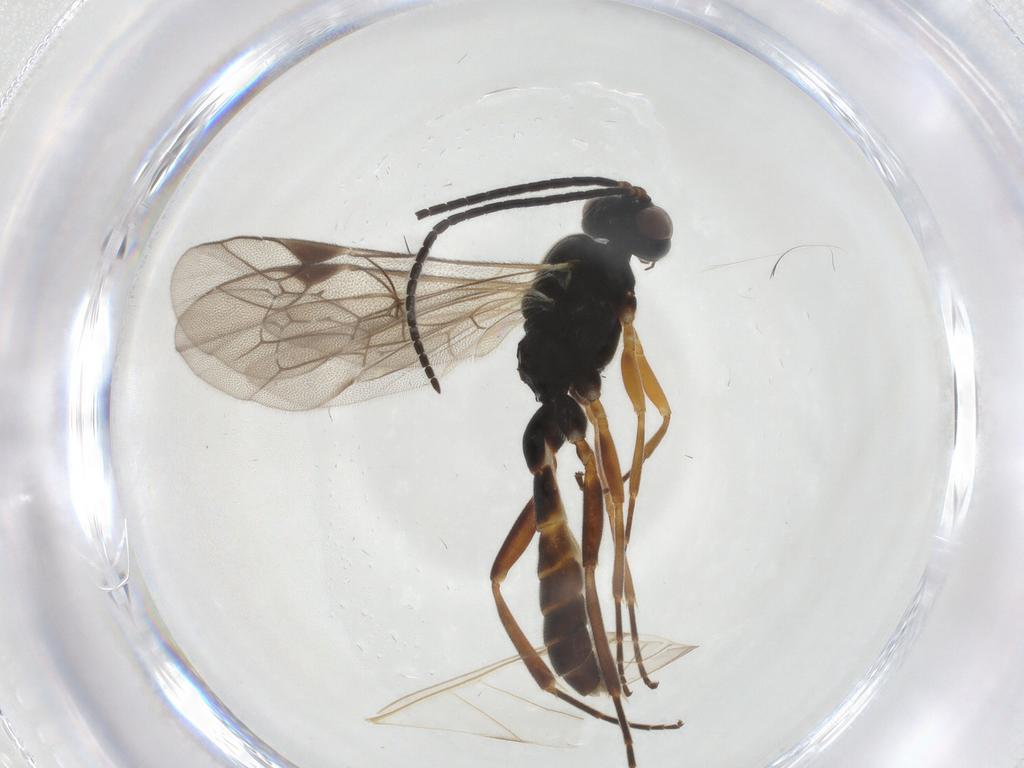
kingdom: Animalia
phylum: Arthropoda
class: Insecta
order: Hymenoptera
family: Ichneumonidae
